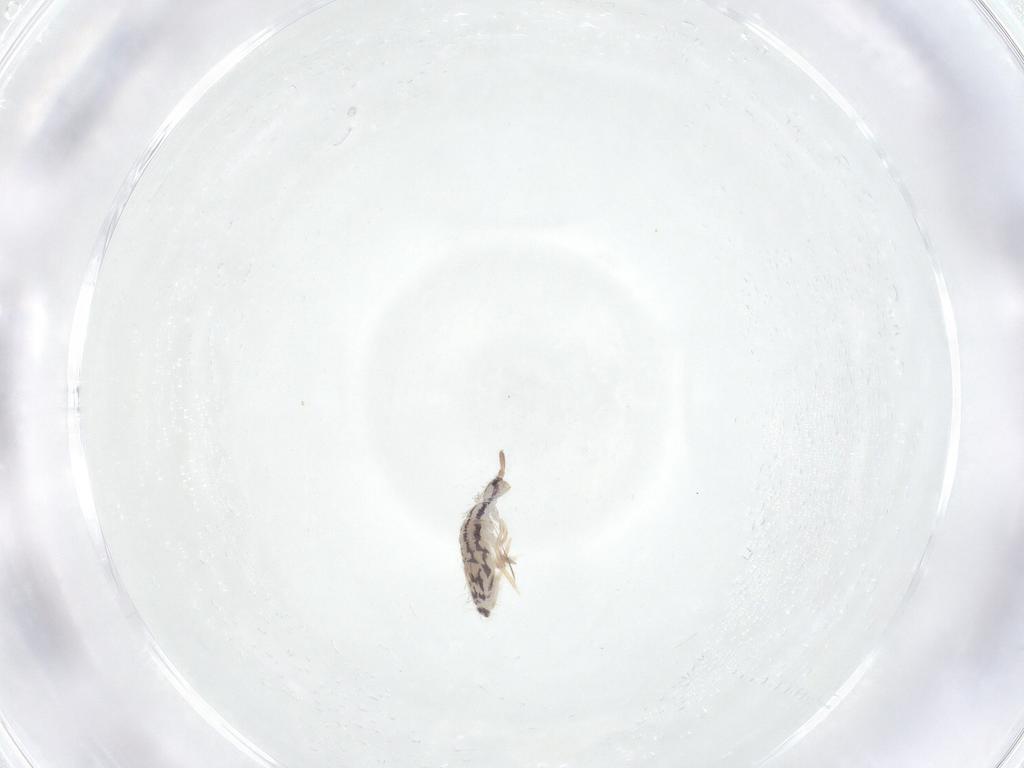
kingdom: Animalia
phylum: Arthropoda
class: Collembola
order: Entomobryomorpha
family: Entomobryidae
